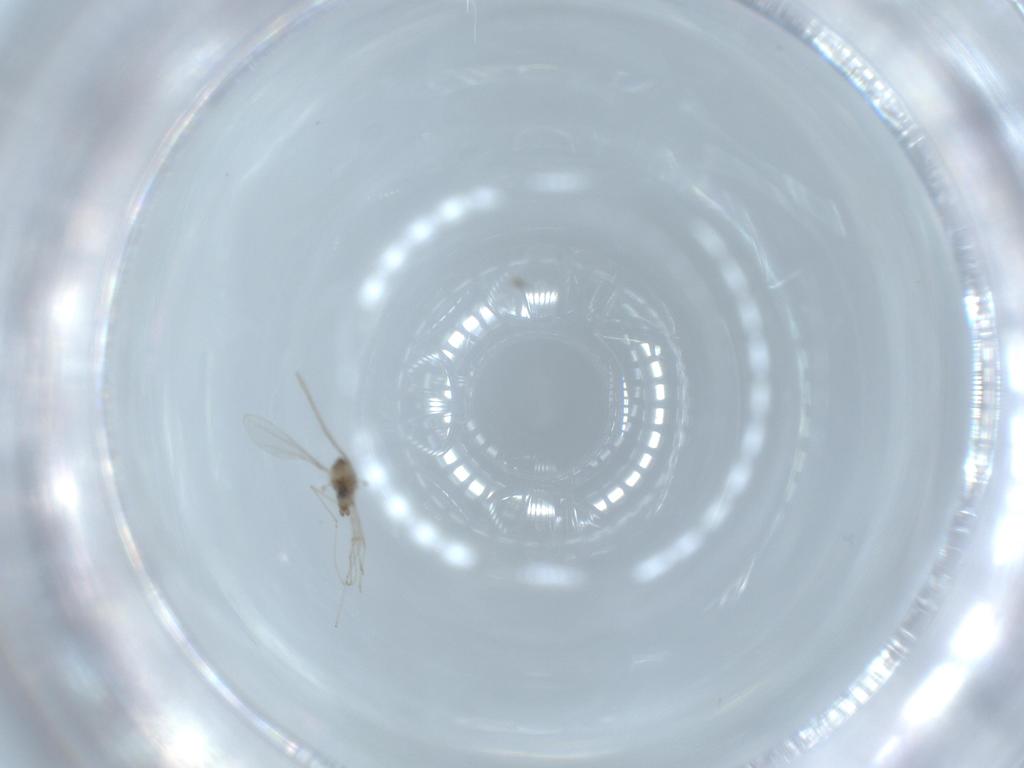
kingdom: Animalia
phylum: Arthropoda
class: Insecta
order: Diptera
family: Cecidomyiidae
